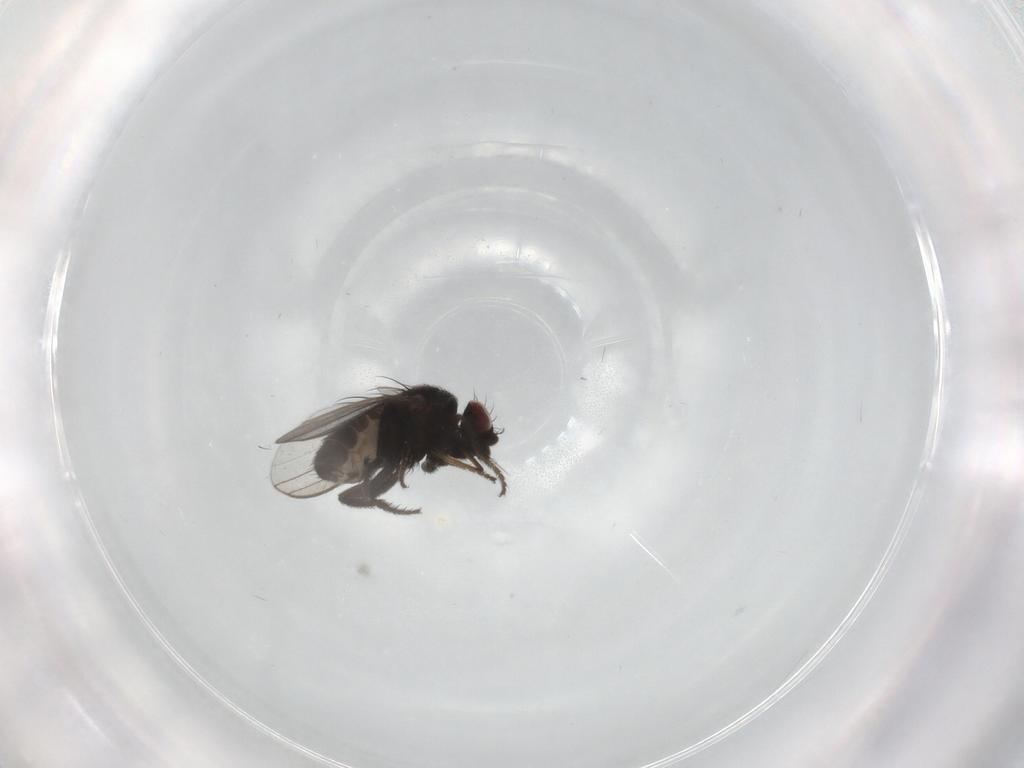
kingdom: Animalia
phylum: Arthropoda
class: Insecta
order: Diptera
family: Milichiidae
